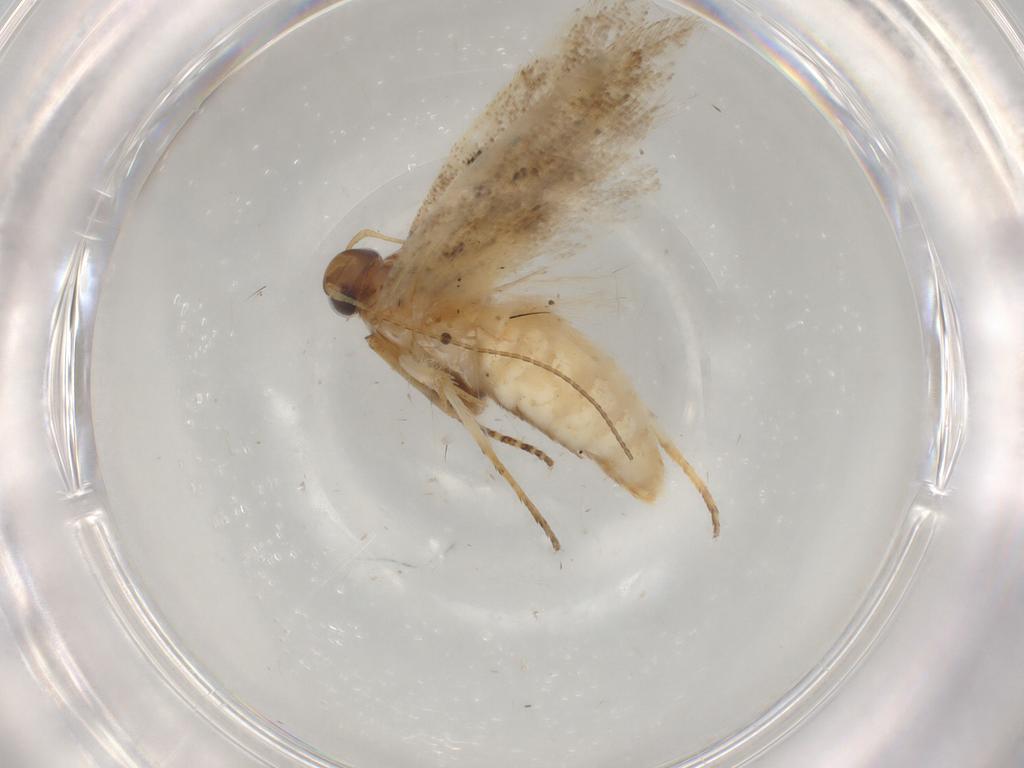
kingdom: Animalia
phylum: Arthropoda
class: Insecta
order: Lepidoptera
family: Gelechiidae
